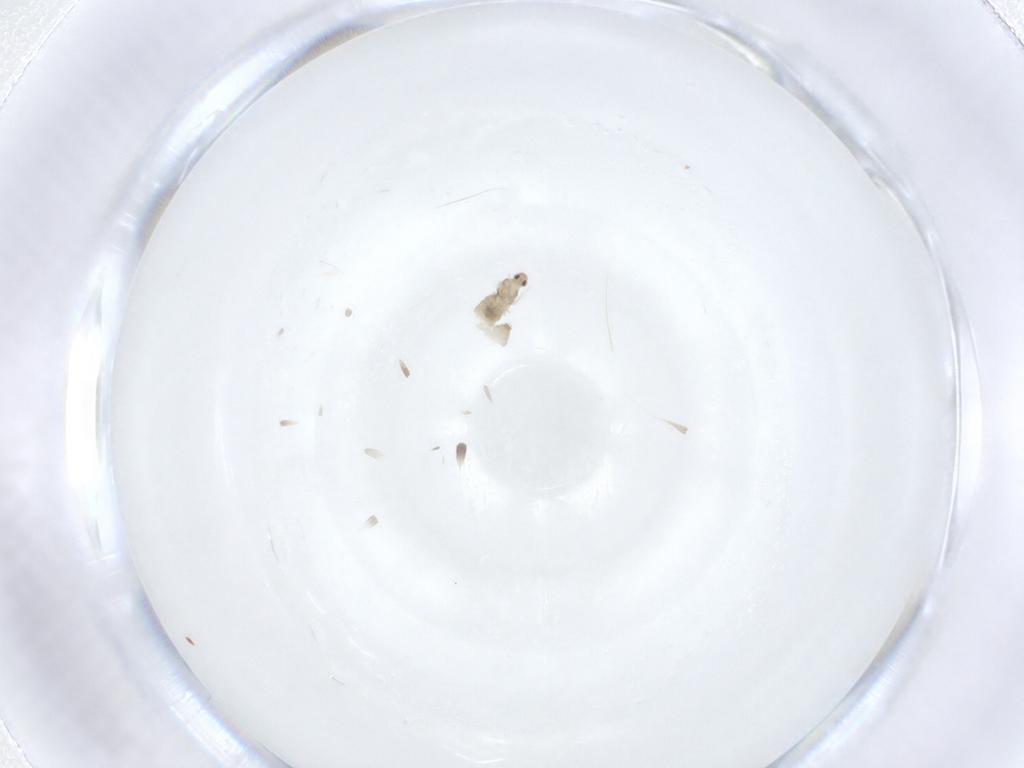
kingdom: Animalia
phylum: Arthropoda
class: Insecta
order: Diptera
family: Cecidomyiidae
